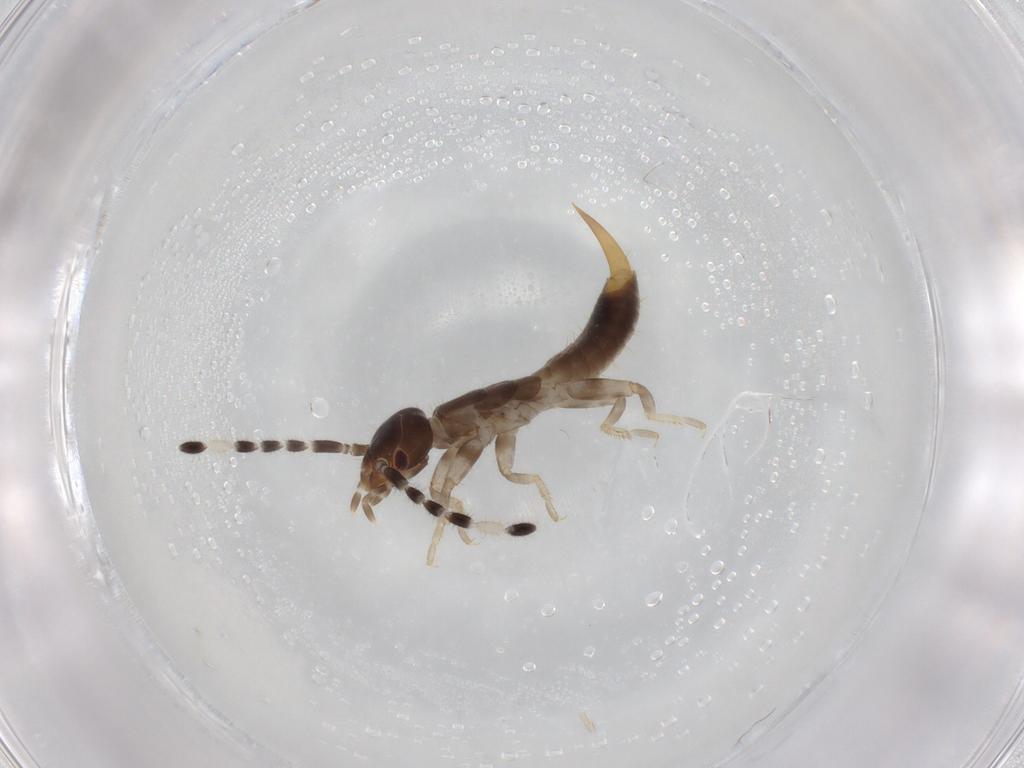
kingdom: Animalia
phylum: Arthropoda
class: Insecta
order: Dermaptera
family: Anisolabididae
